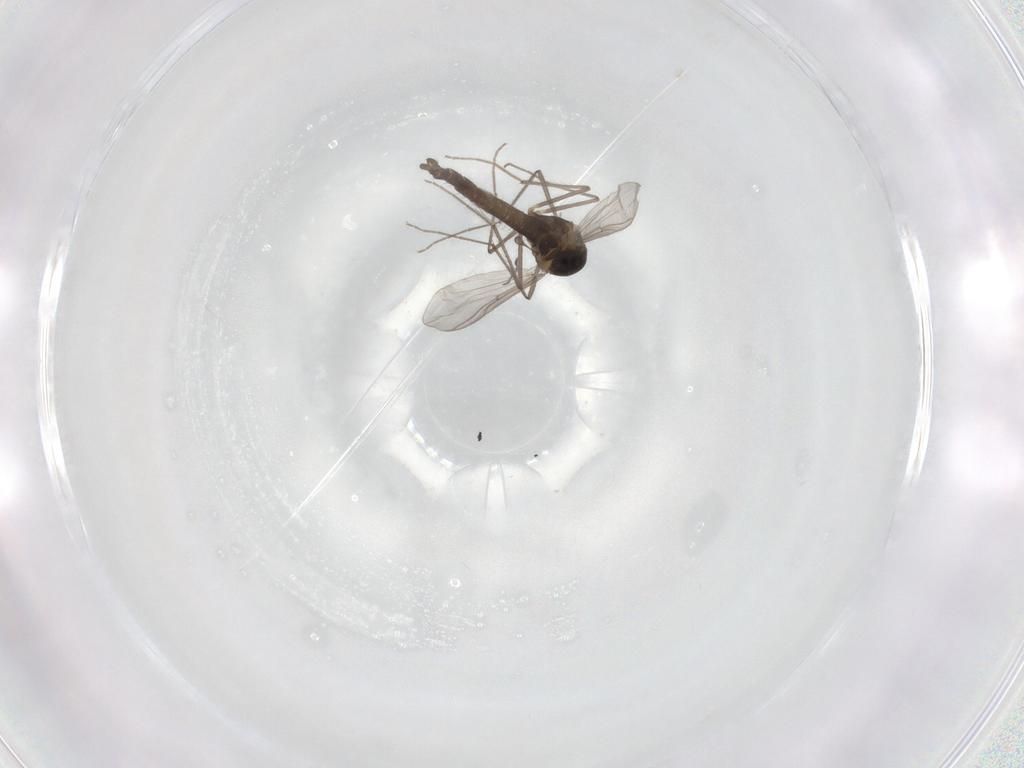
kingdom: Animalia
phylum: Arthropoda
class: Insecta
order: Diptera
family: Chironomidae
